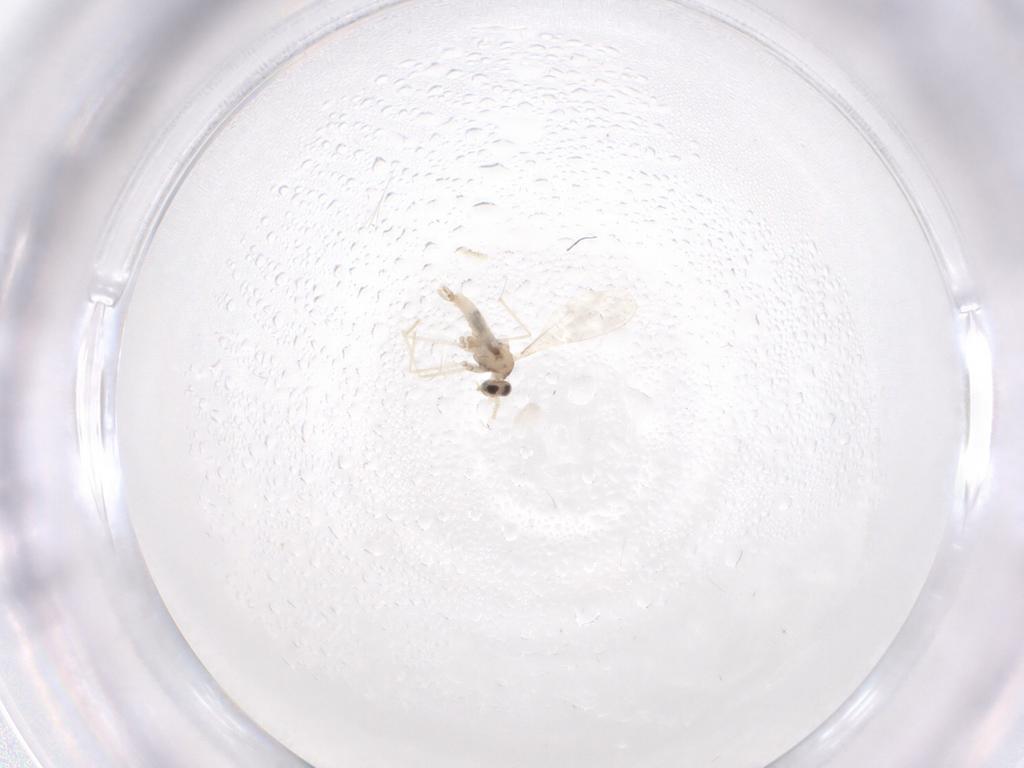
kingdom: Animalia
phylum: Arthropoda
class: Insecta
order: Diptera
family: Cecidomyiidae
